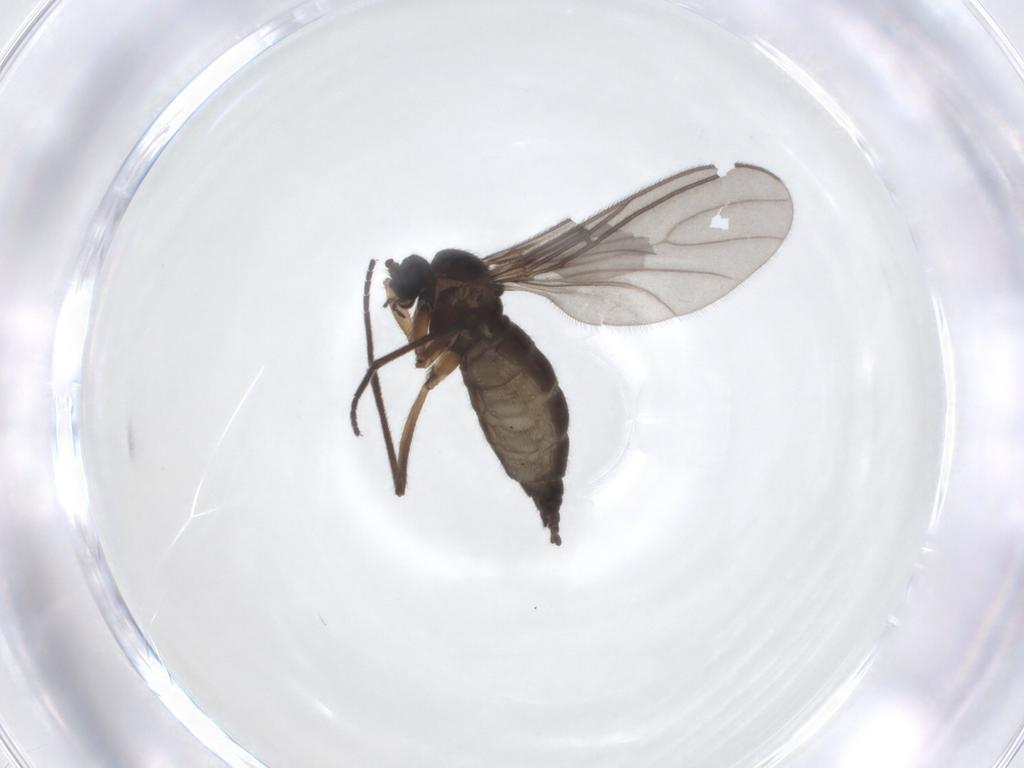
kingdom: Animalia
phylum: Arthropoda
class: Insecta
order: Diptera
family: Sciaridae
